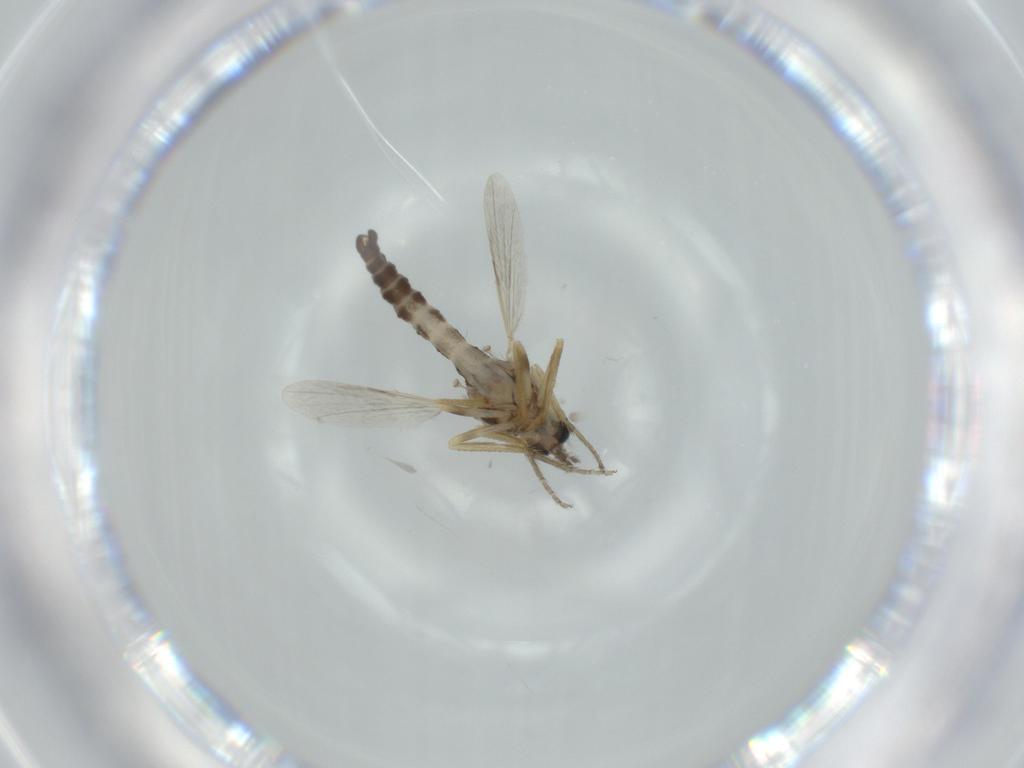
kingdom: Animalia
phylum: Arthropoda
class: Insecta
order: Diptera
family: Ceratopogonidae
